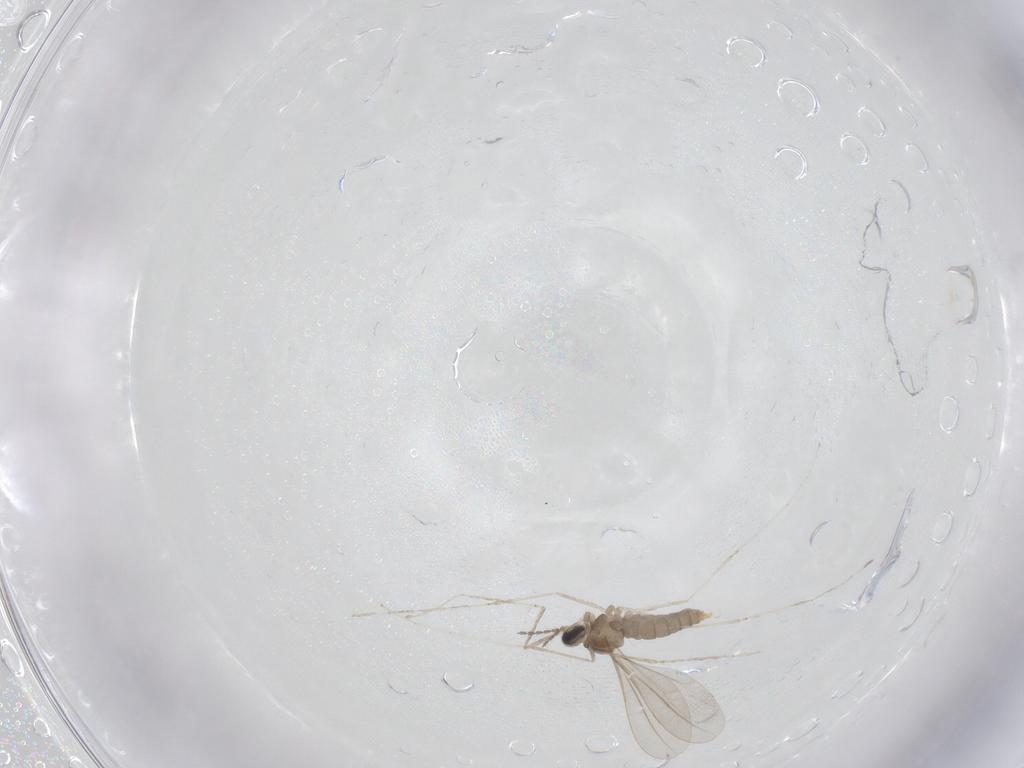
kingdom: Animalia
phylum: Arthropoda
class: Insecta
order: Diptera
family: Cecidomyiidae
